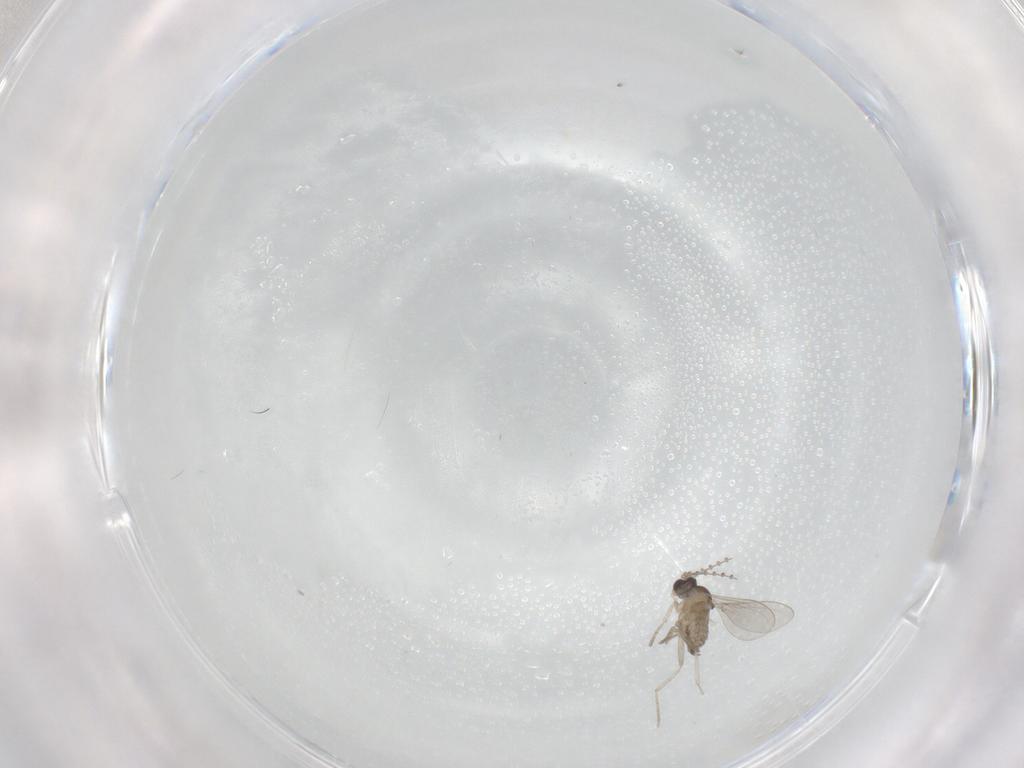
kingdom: Animalia
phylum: Arthropoda
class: Insecta
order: Diptera
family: Cecidomyiidae
